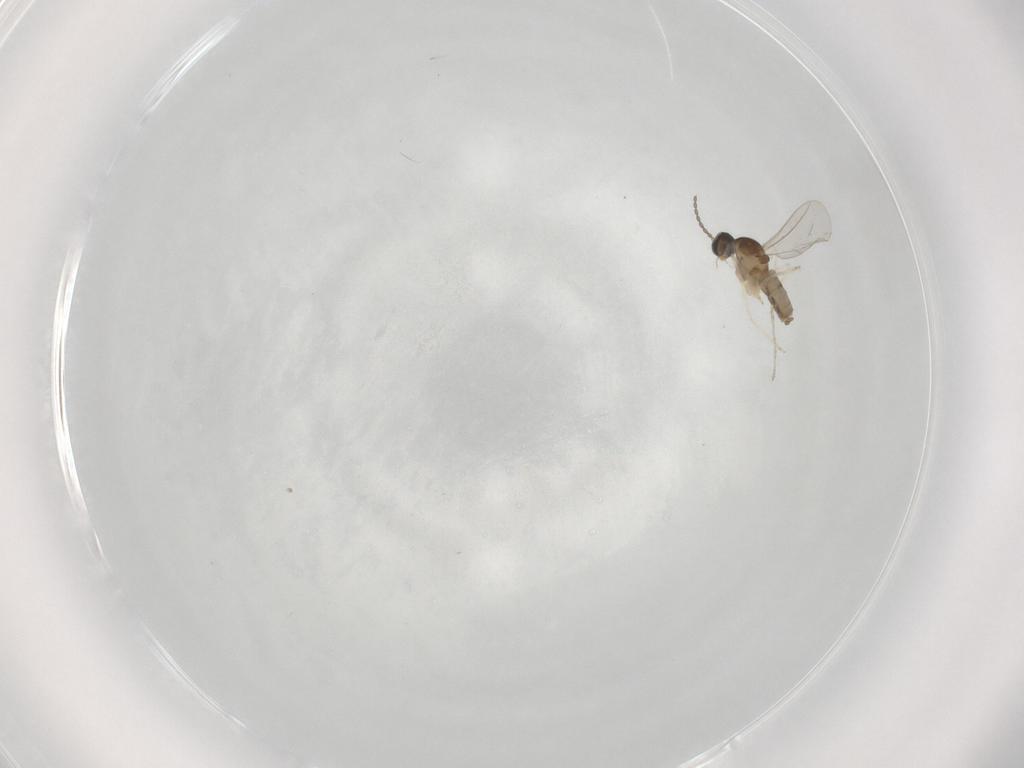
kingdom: Animalia
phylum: Arthropoda
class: Insecta
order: Diptera
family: Cecidomyiidae
